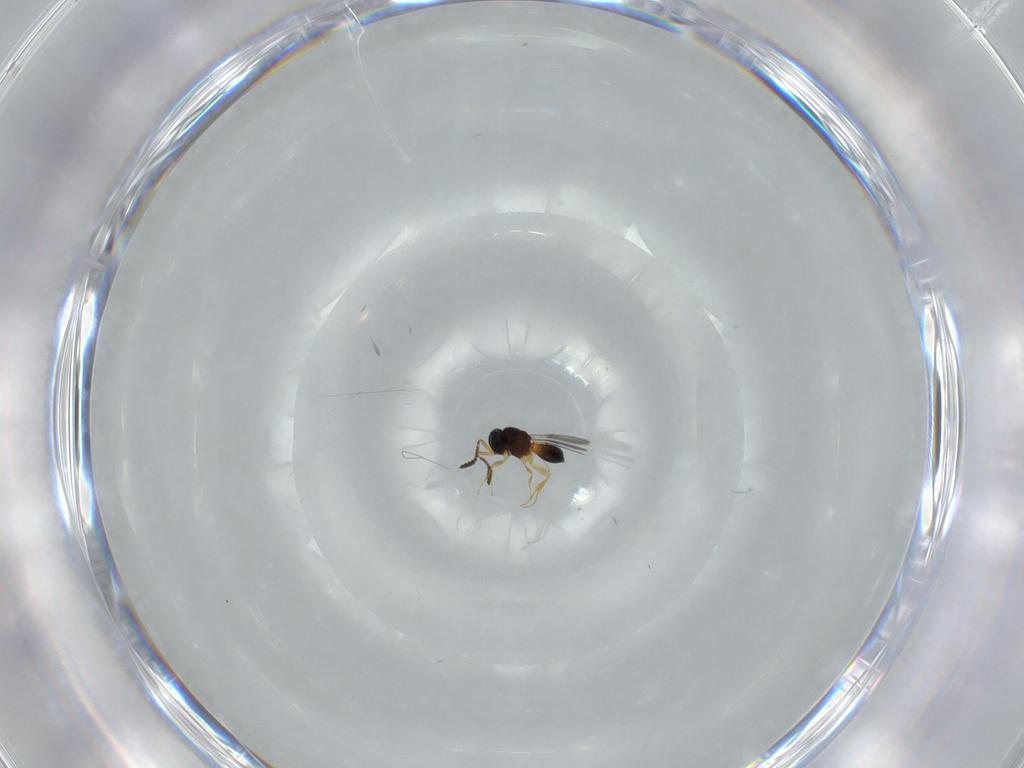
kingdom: Animalia
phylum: Arthropoda
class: Insecta
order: Hymenoptera
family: Scelionidae
